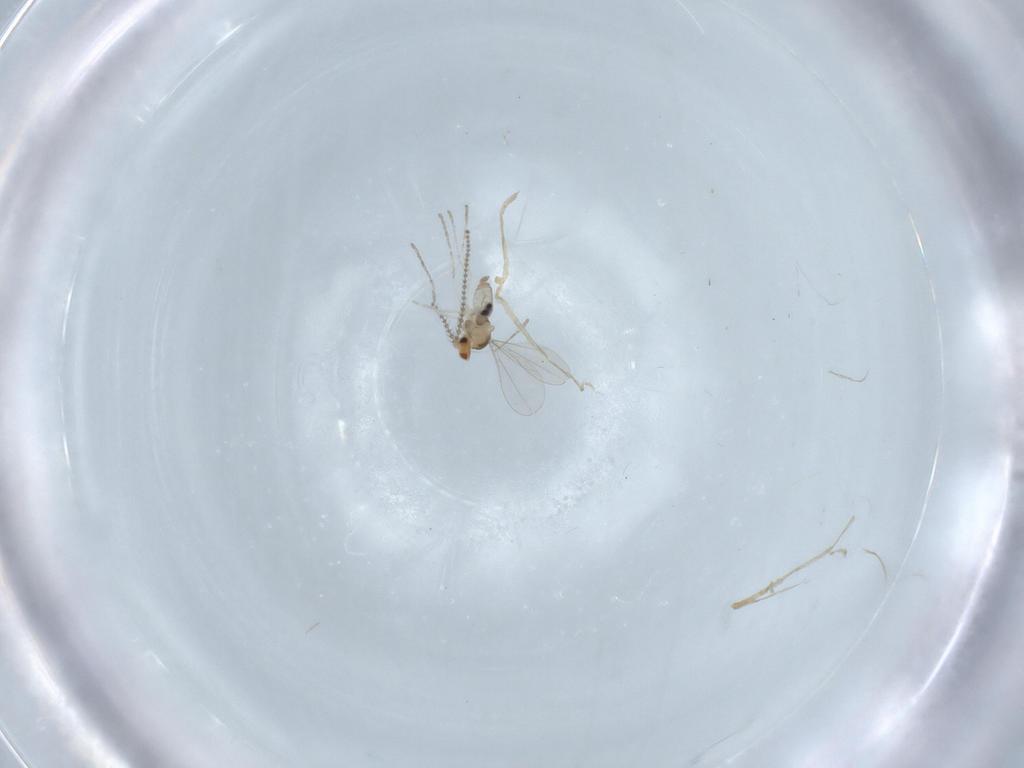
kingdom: Animalia
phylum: Arthropoda
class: Insecta
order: Diptera
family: Cecidomyiidae
